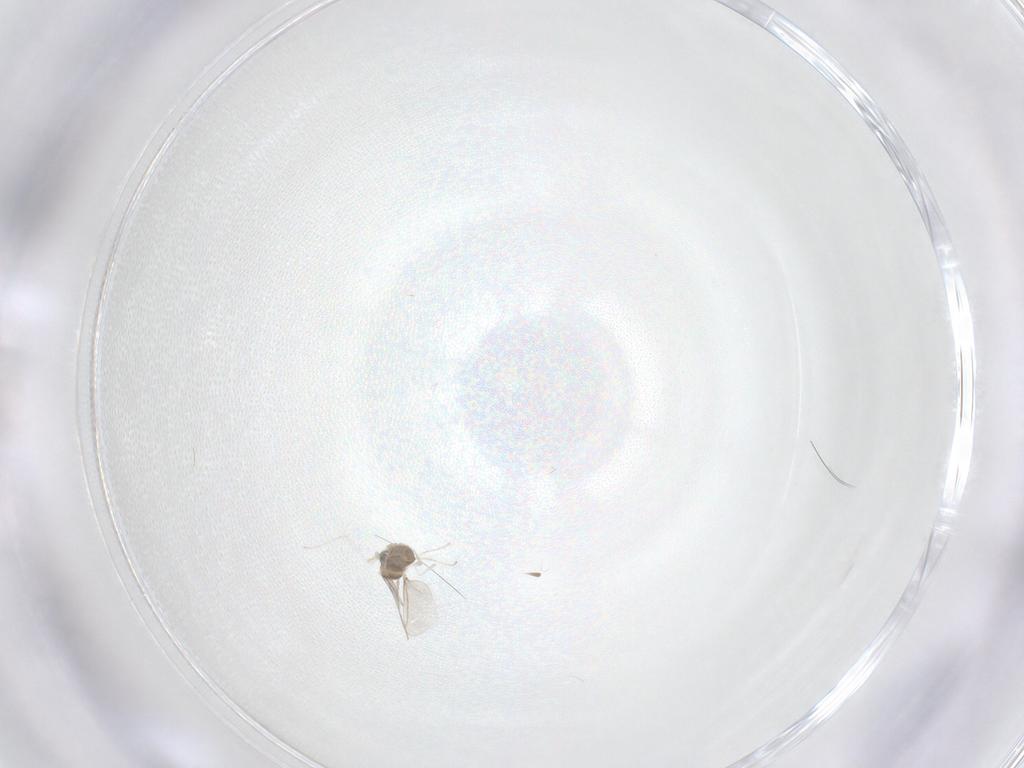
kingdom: Animalia
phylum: Arthropoda
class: Insecta
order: Diptera
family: Cecidomyiidae
